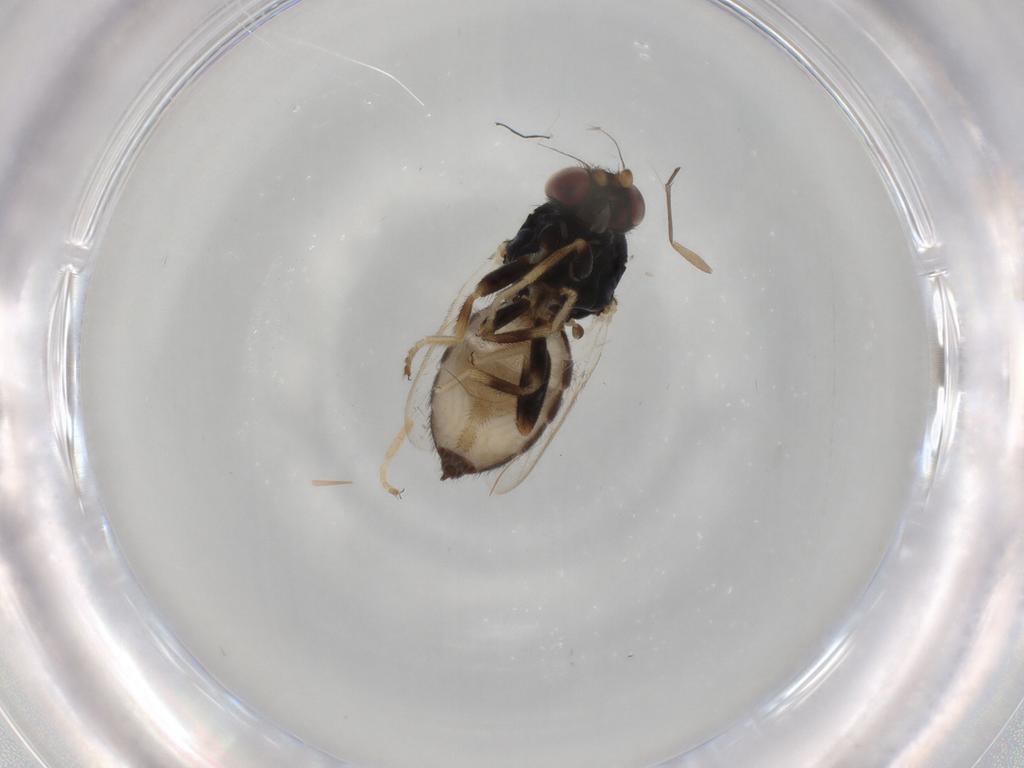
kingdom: Animalia
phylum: Arthropoda
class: Insecta
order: Diptera
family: Chloropidae
